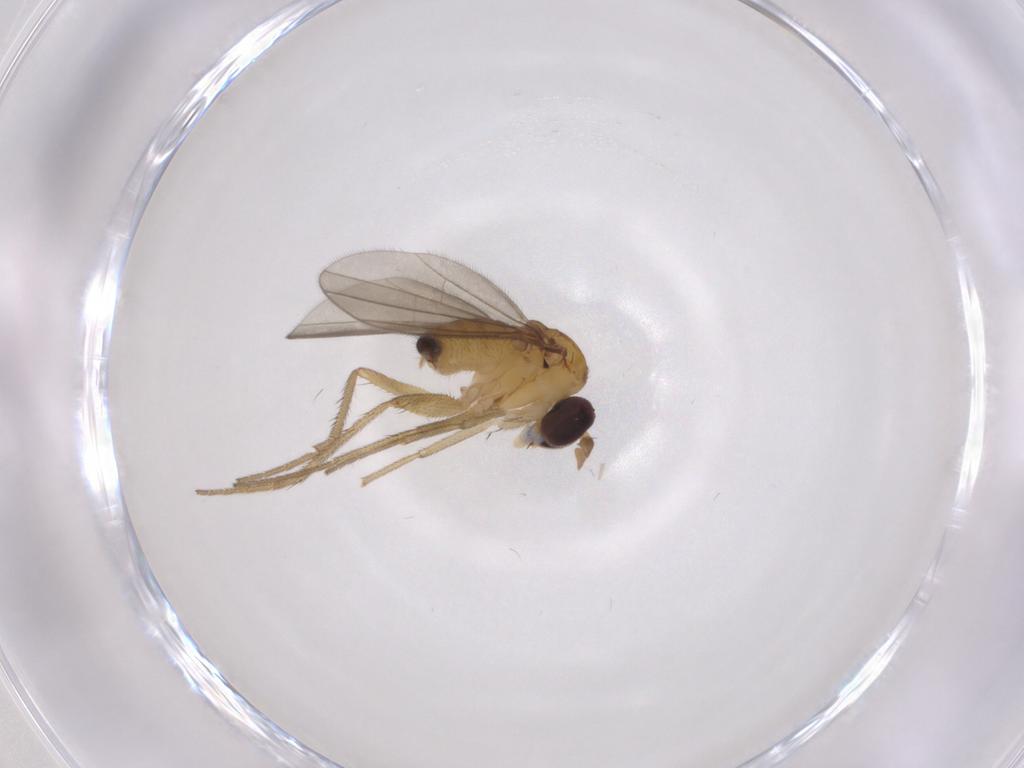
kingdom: Animalia
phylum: Arthropoda
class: Insecta
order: Diptera
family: Dolichopodidae
